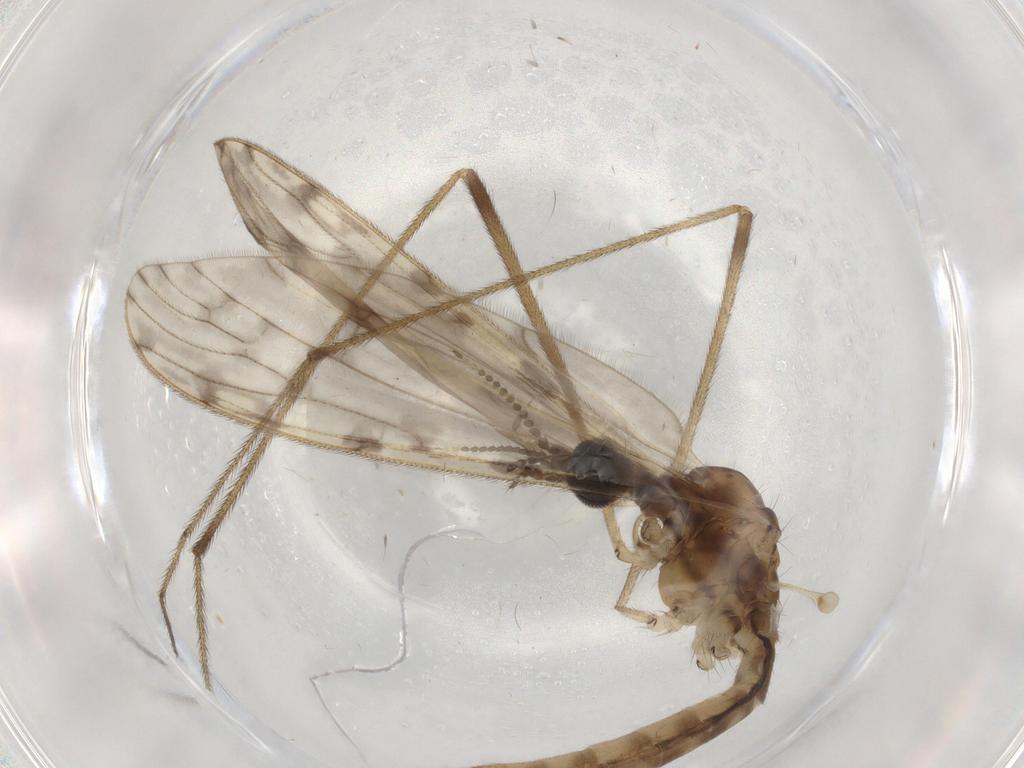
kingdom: Animalia
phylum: Arthropoda
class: Insecta
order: Diptera
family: Sphaeroceridae
